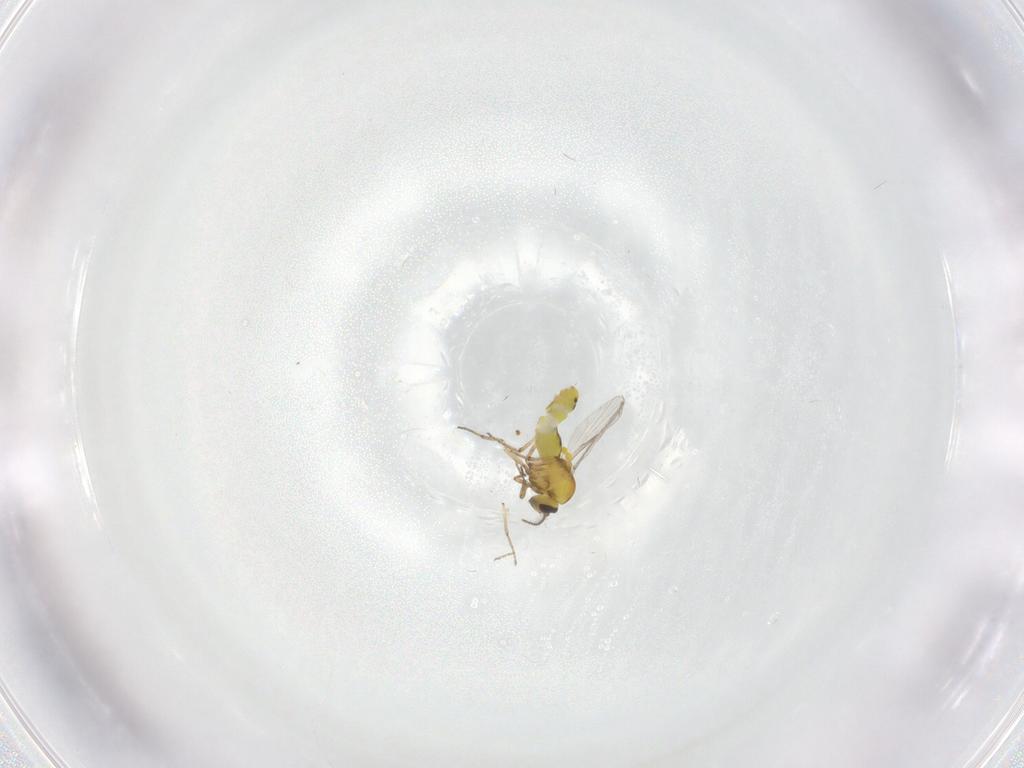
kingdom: Animalia
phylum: Arthropoda
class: Insecta
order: Diptera
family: Ceratopogonidae
